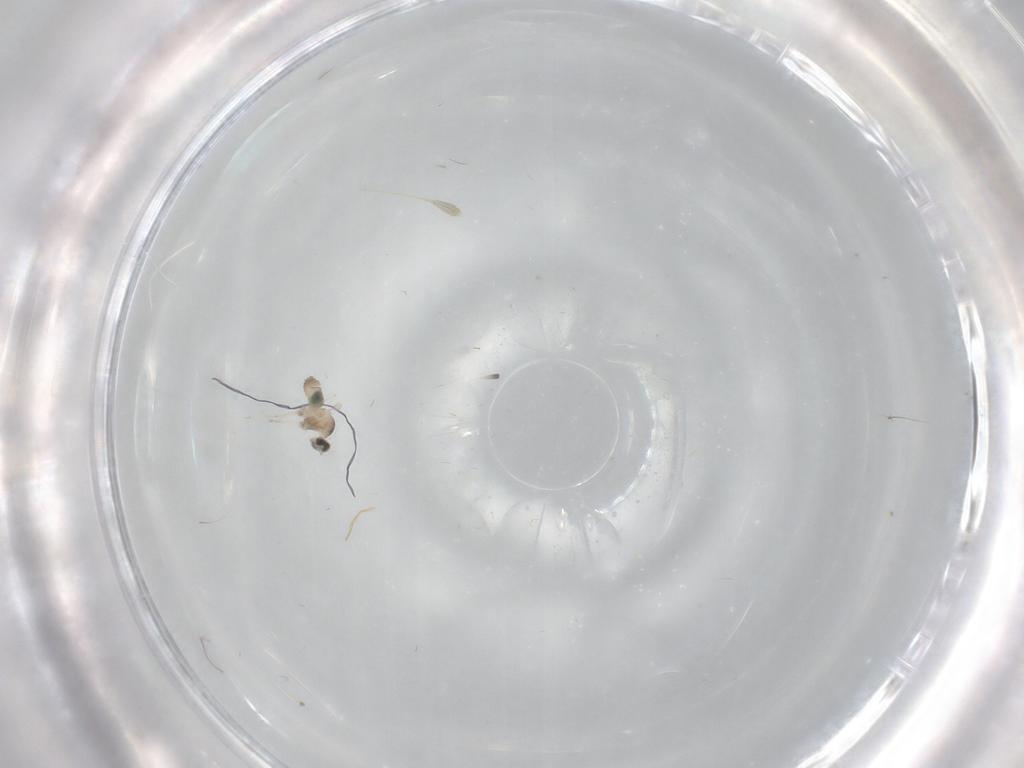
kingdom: Animalia
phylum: Arthropoda
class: Insecta
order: Diptera
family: Cecidomyiidae
